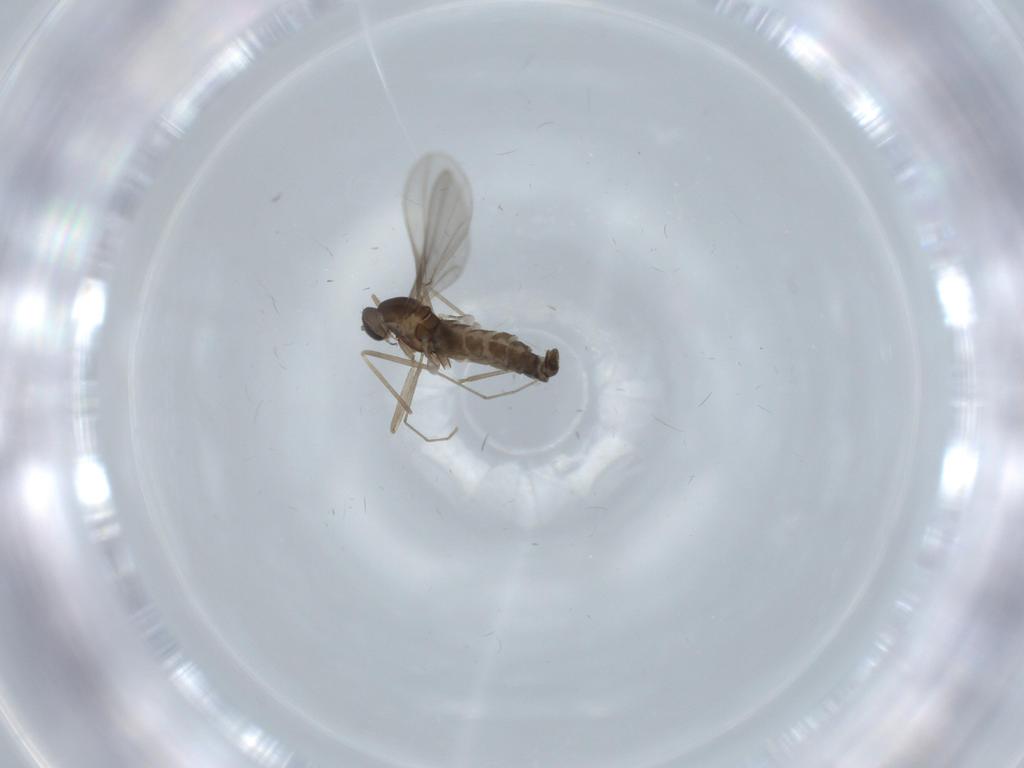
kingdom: Animalia
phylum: Arthropoda
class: Insecta
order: Diptera
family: Cecidomyiidae
